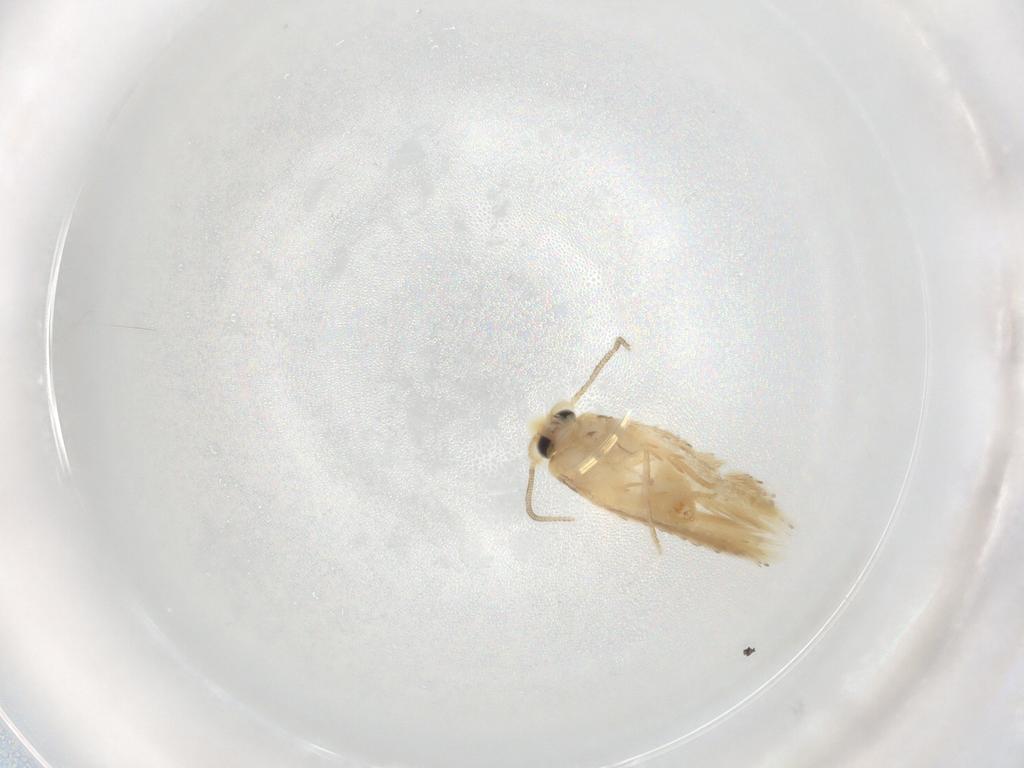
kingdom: Animalia
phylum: Arthropoda
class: Insecta
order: Lepidoptera
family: Nepticulidae
